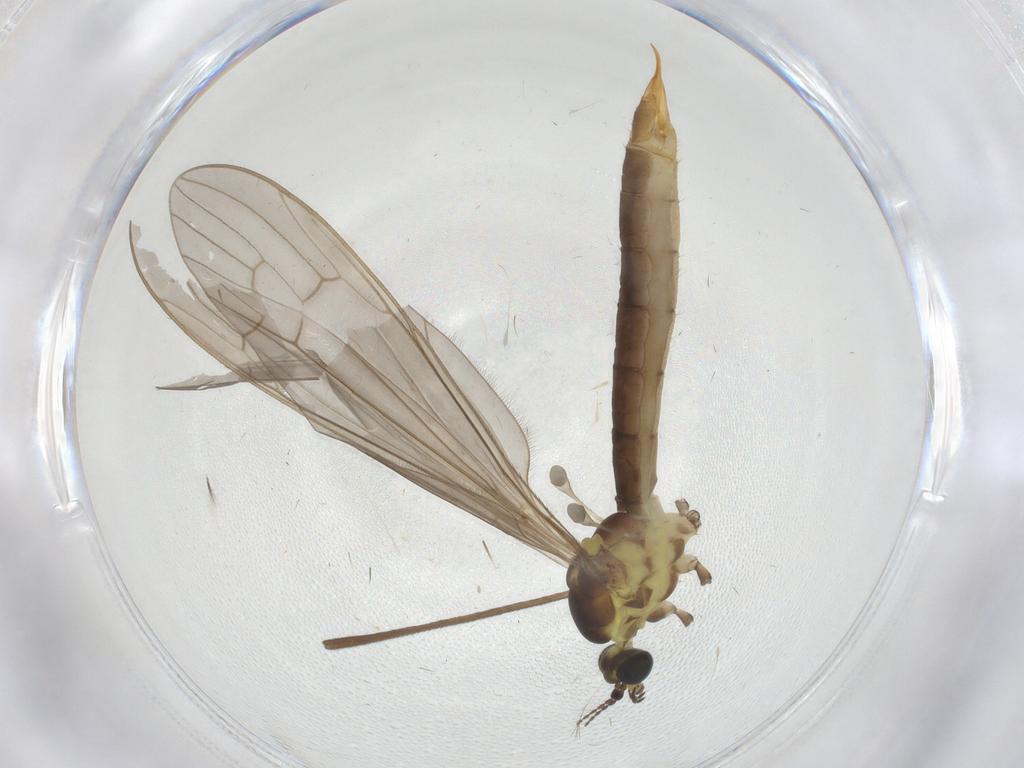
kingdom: Animalia
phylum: Arthropoda
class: Insecta
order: Diptera
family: Limoniidae
